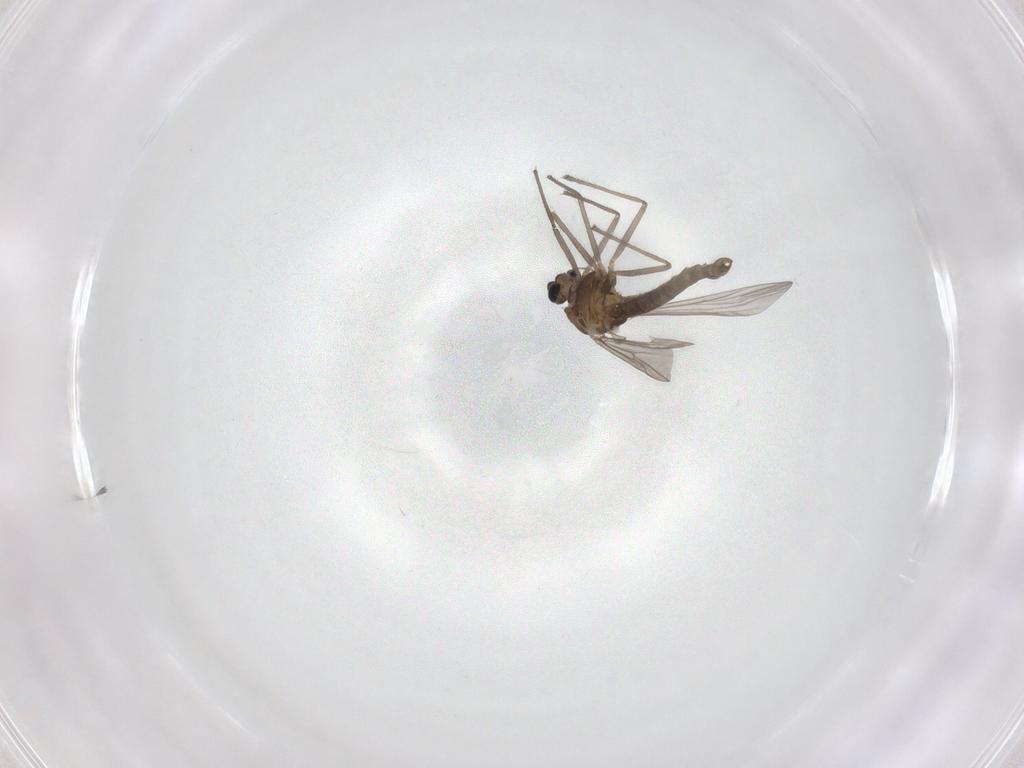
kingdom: Animalia
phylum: Arthropoda
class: Insecta
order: Diptera
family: Chironomidae
